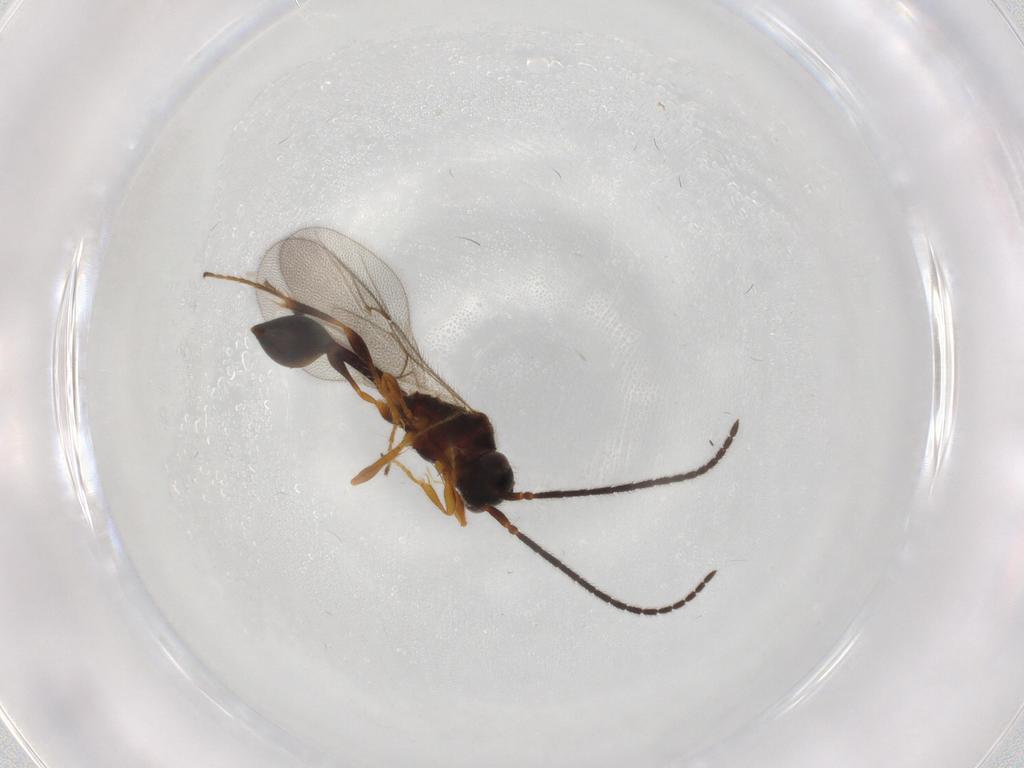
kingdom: Animalia
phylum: Arthropoda
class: Insecta
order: Hymenoptera
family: Diapriidae
